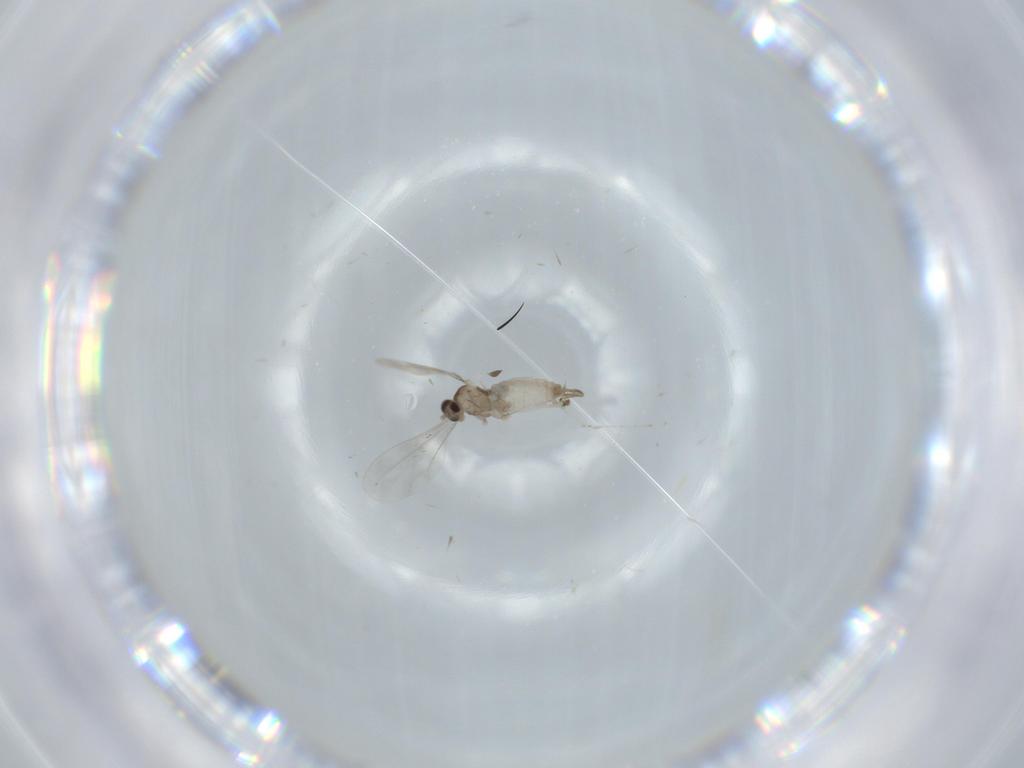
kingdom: Animalia
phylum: Arthropoda
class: Insecta
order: Diptera
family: Cecidomyiidae
